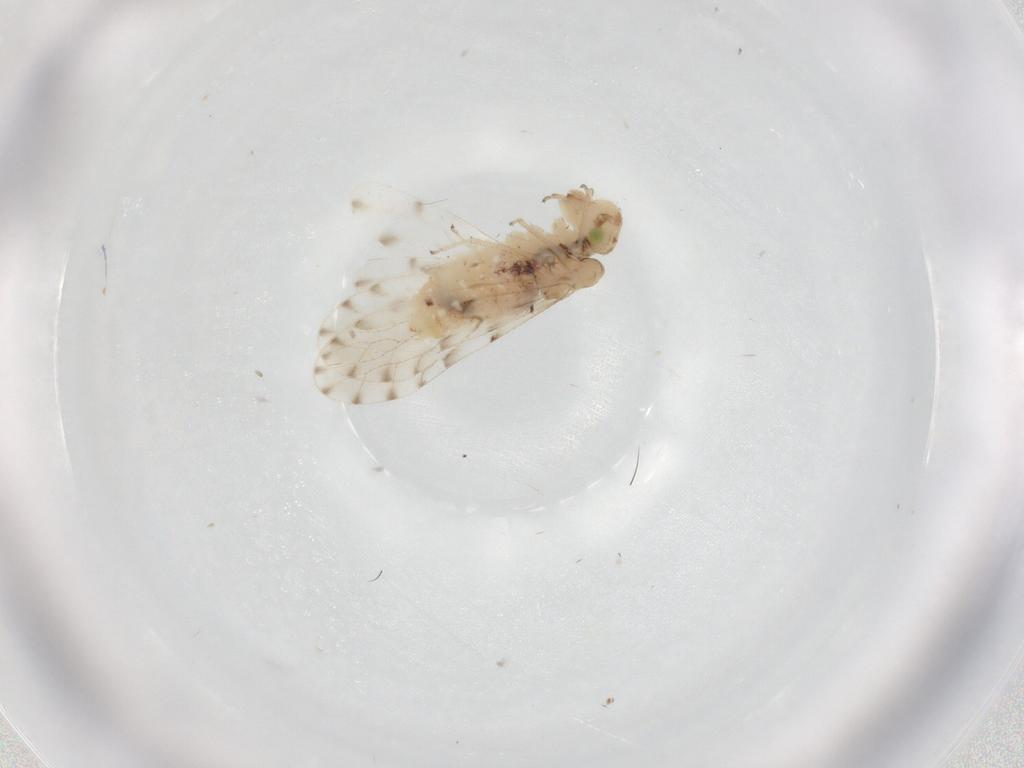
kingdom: Animalia
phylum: Arthropoda
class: Insecta
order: Psocodea
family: Ectopsocidae
